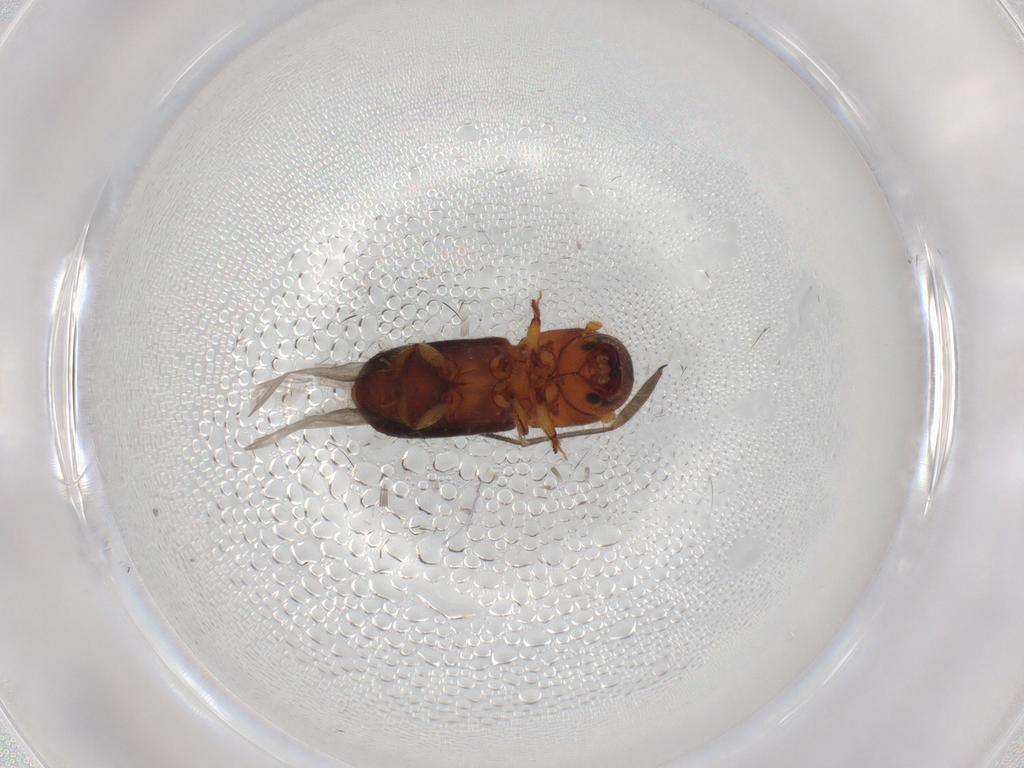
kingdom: Animalia
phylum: Arthropoda
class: Insecta
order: Coleoptera
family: Curculionidae
